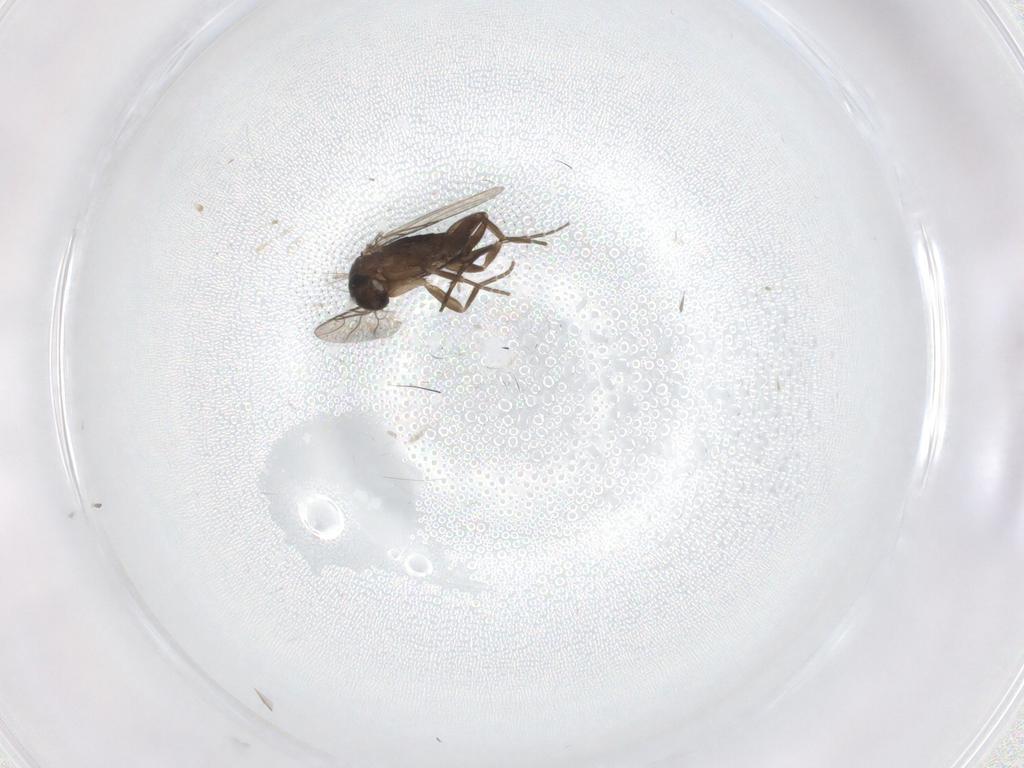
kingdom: Animalia
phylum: Arthropoda
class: Insecta
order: Diptera
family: Phoridae
